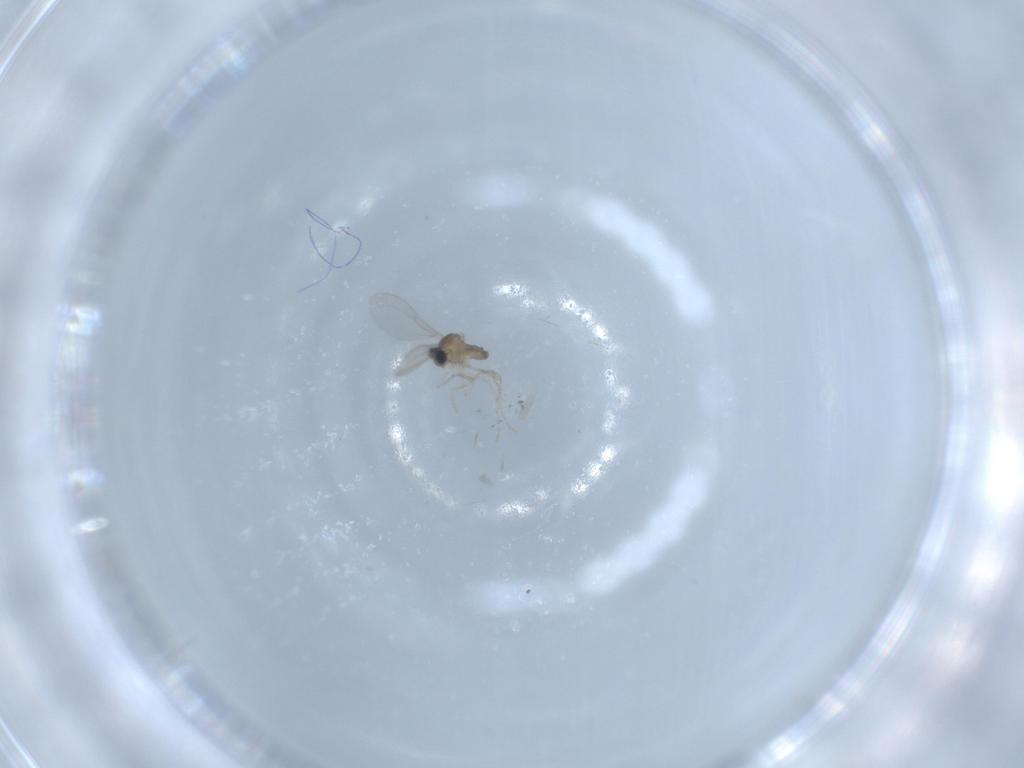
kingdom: Animalia
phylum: Arthropoda
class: Insecta
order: Diptera
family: Cecidomyiidae
